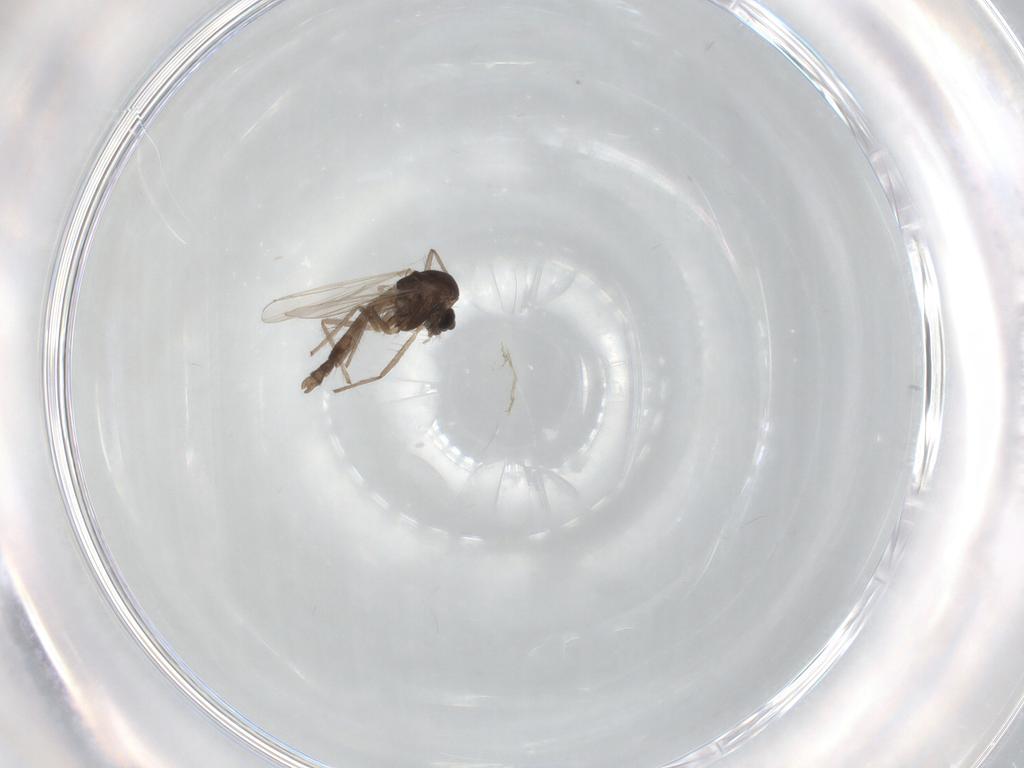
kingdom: Animalia
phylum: Arthropoda
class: Insecta
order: Diptera
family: Chironomidae
